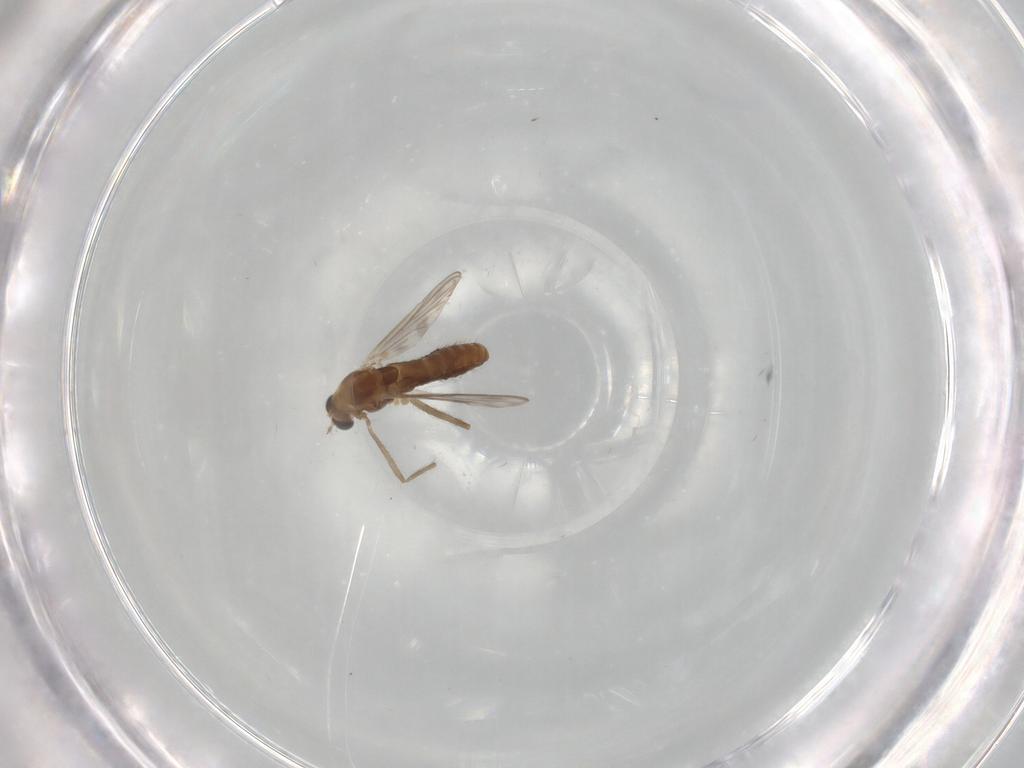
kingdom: Animalia
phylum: Arthropoda
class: Insecta
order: Diptera
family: Chironomidae
